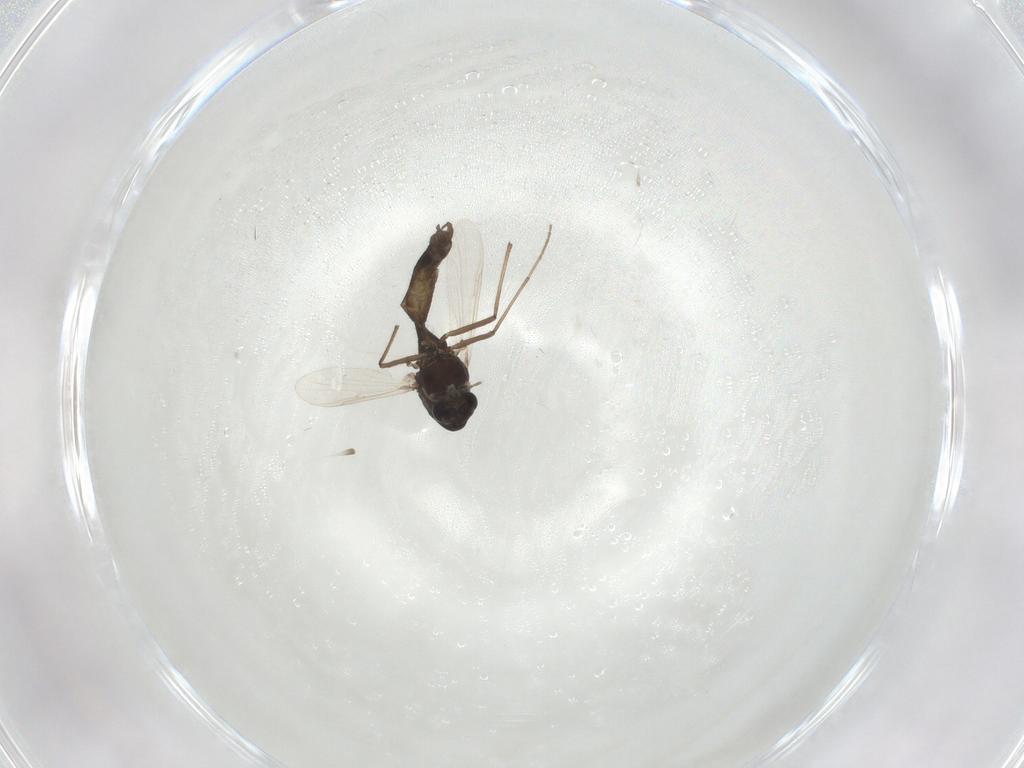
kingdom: Animalia
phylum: Arthropoda
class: Insecta
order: Diptera
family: Chironomidae
